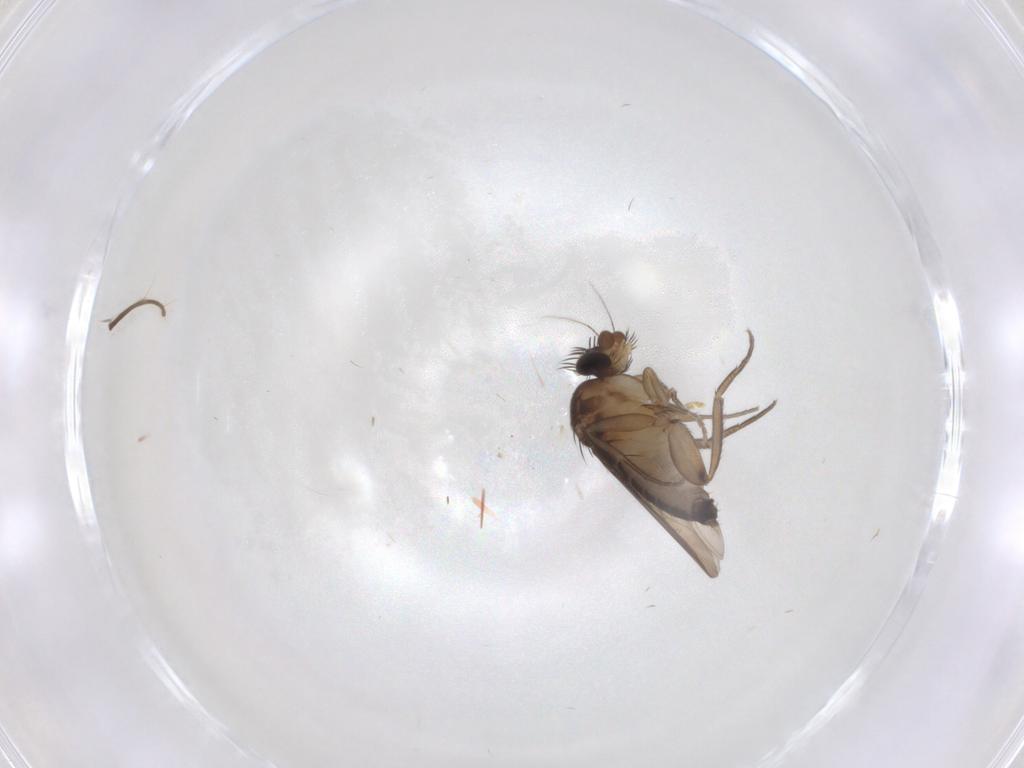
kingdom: Animalia
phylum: Arthropoda
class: Insecta
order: Diptera
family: Phoridae
